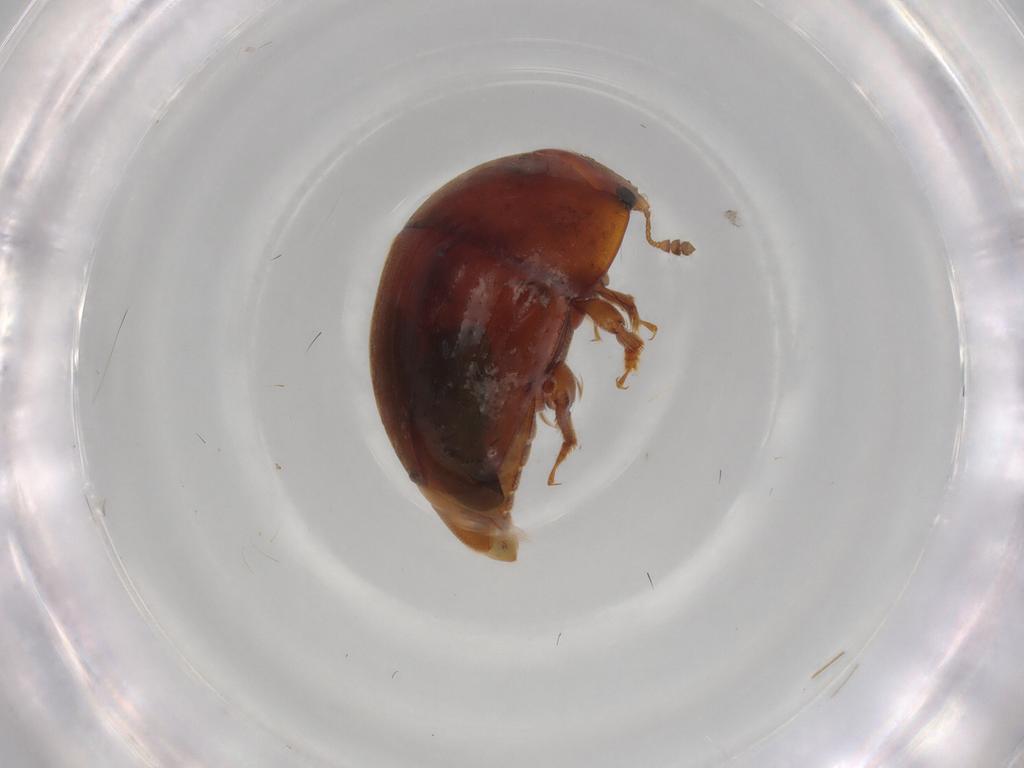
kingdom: Animalia
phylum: Arthropoda
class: Insecta
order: Coleoptera
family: Nitidulidae
